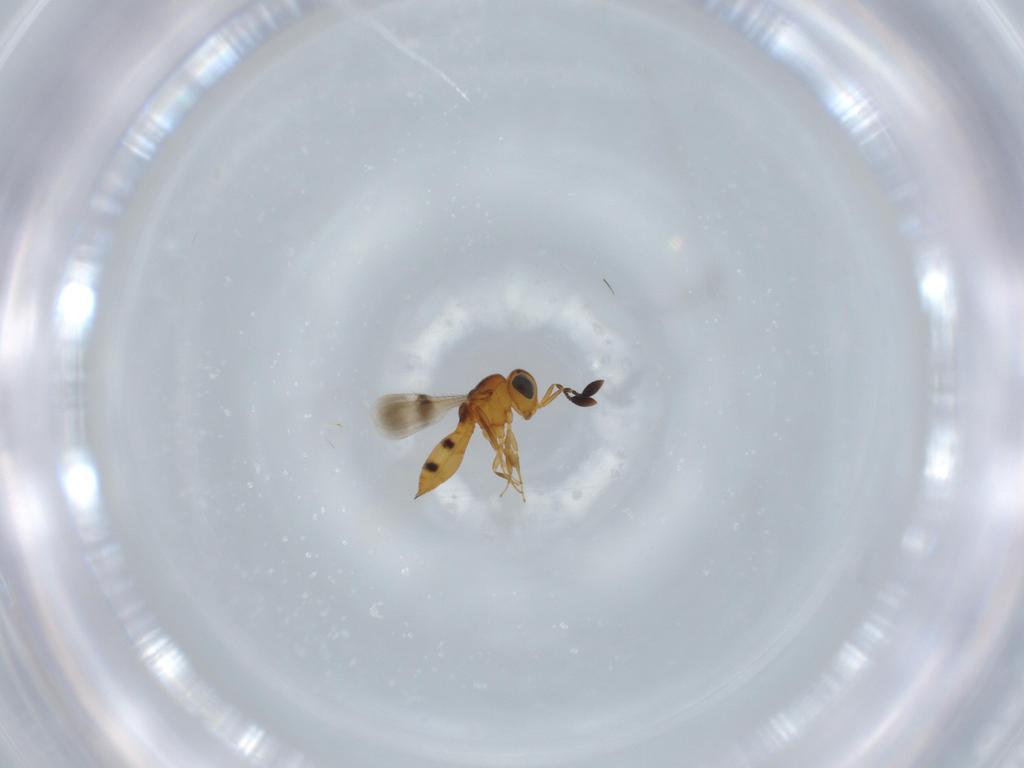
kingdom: Animalia
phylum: Arthropoda
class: Insecta
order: Hymenoptera
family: Scelionidae
